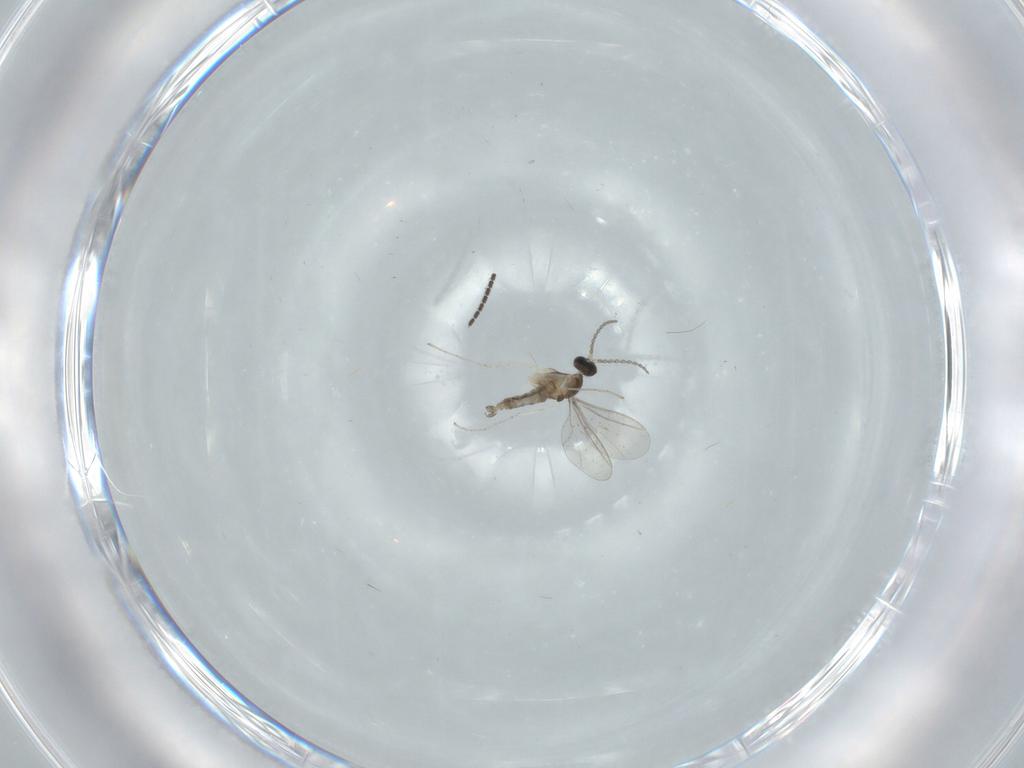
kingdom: Animalia
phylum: Arthropoda
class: Insecta
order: Diptera
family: Cecidomyiidae
